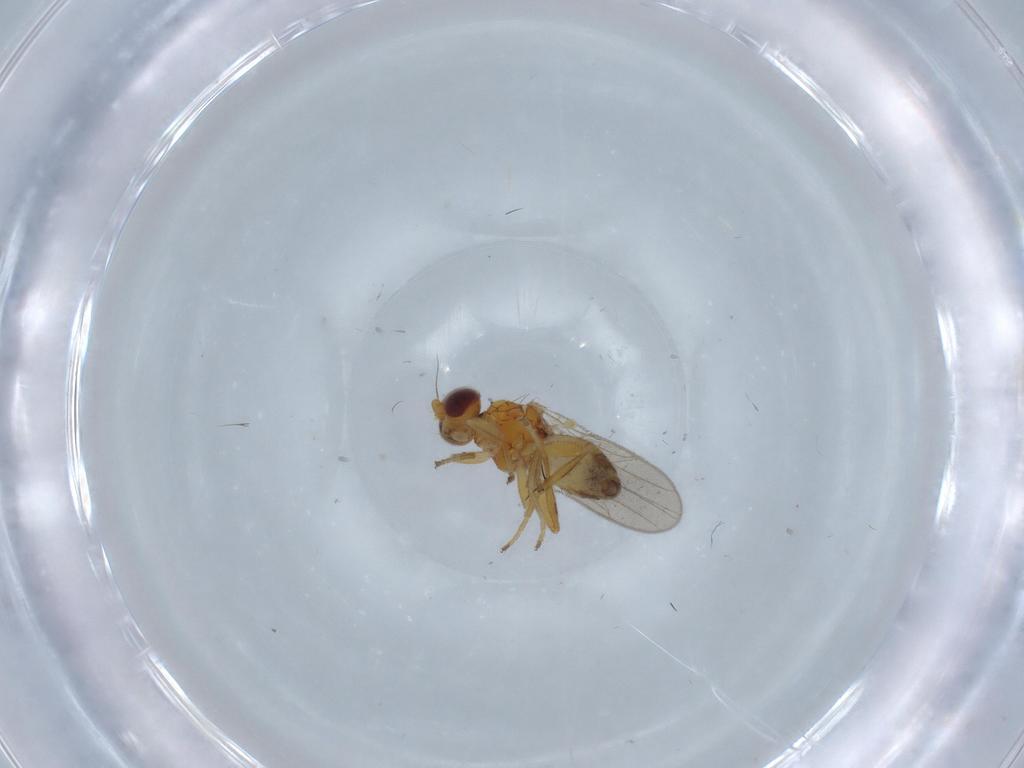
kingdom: Animalia
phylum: Arthropoda
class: Insecta
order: Diptera
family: Chloropidae
